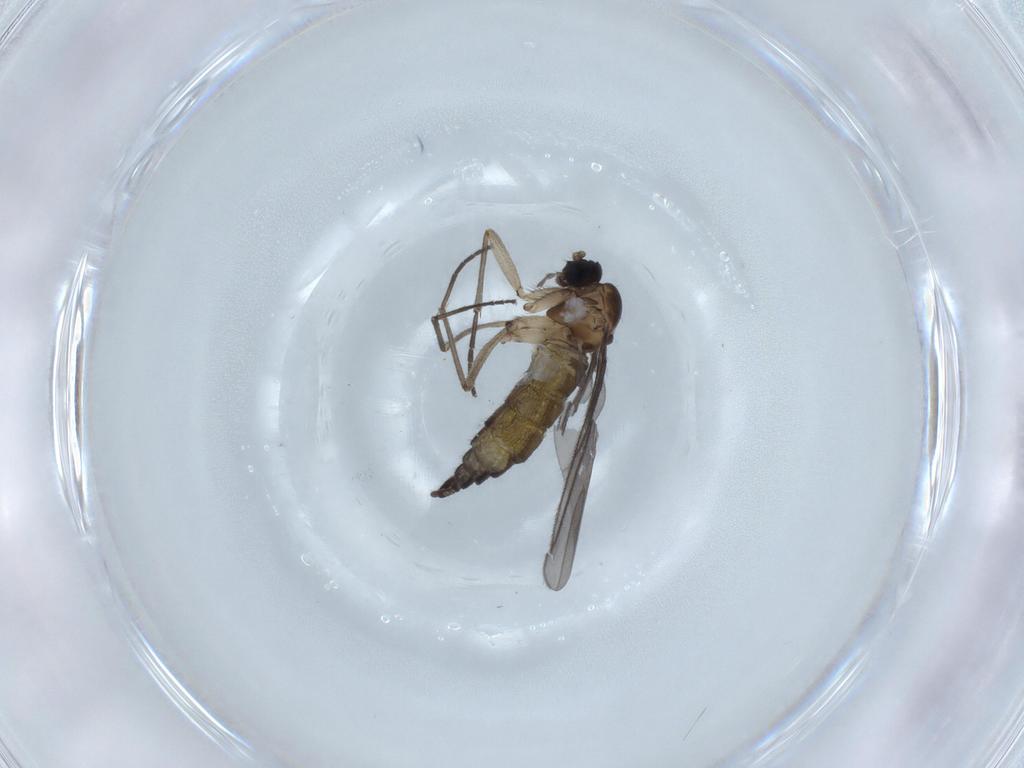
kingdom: Animalia
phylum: Arthropoda
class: Insecta
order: Diptera
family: Sciaridae
